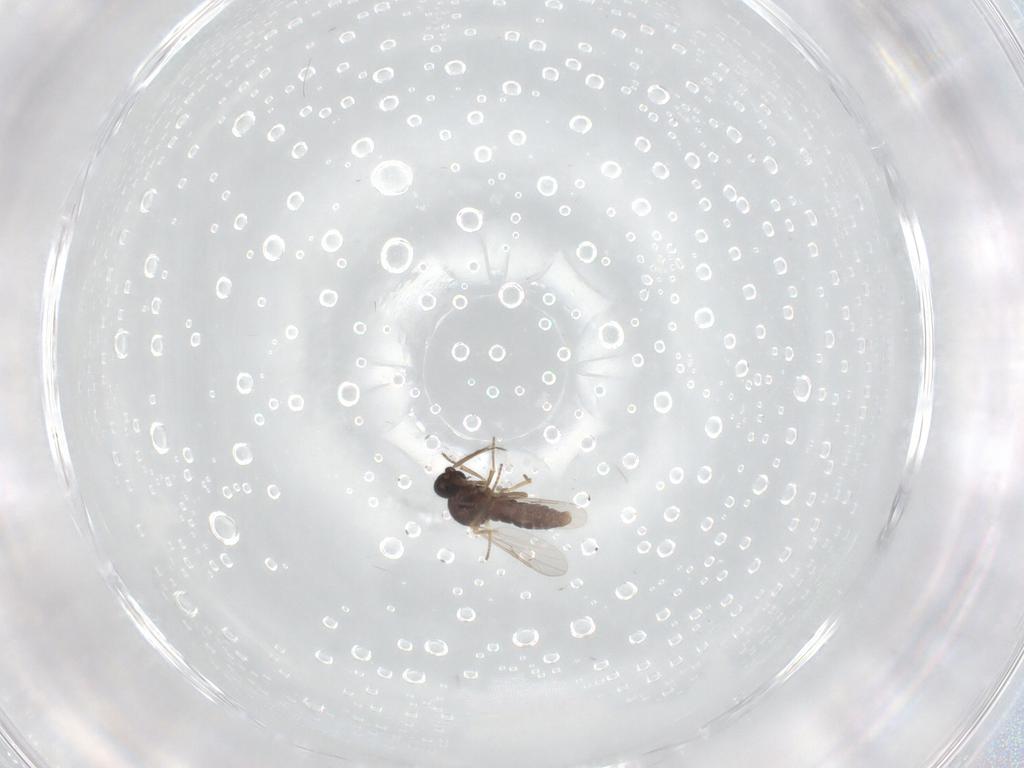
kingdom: Animalia
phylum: Arthropoda
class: Insecta
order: Diptera
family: Ceratopogonidae
